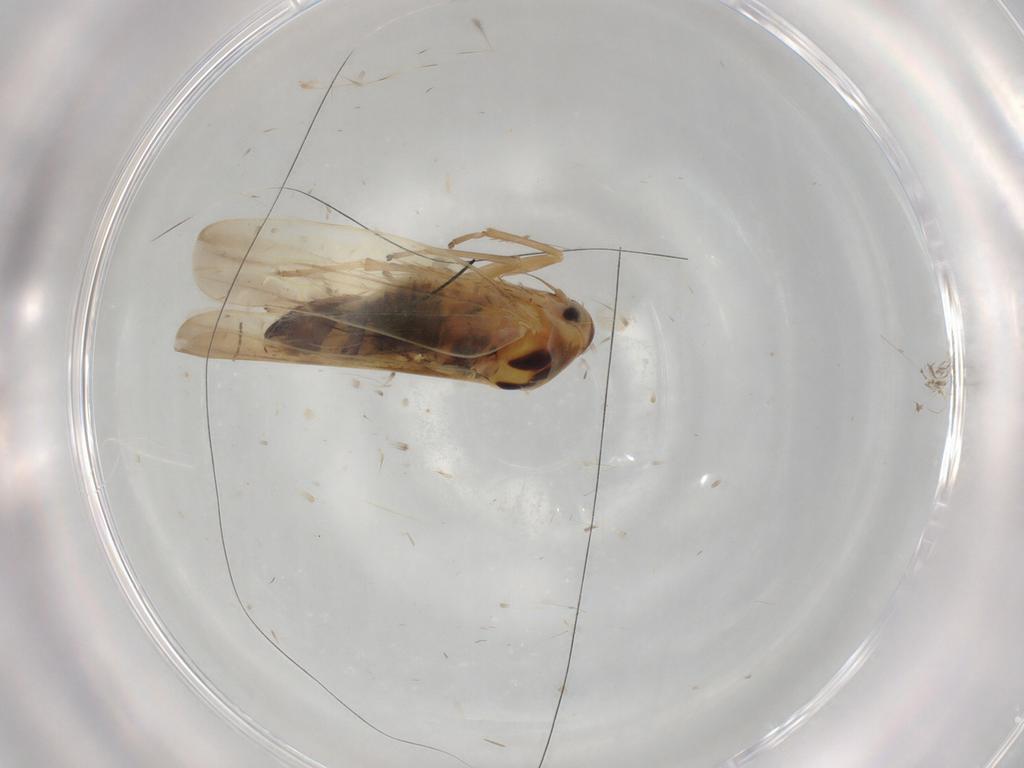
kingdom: Animalia
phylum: Arthropoda
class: Insecta
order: Hemiptera
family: Cicadellidae
